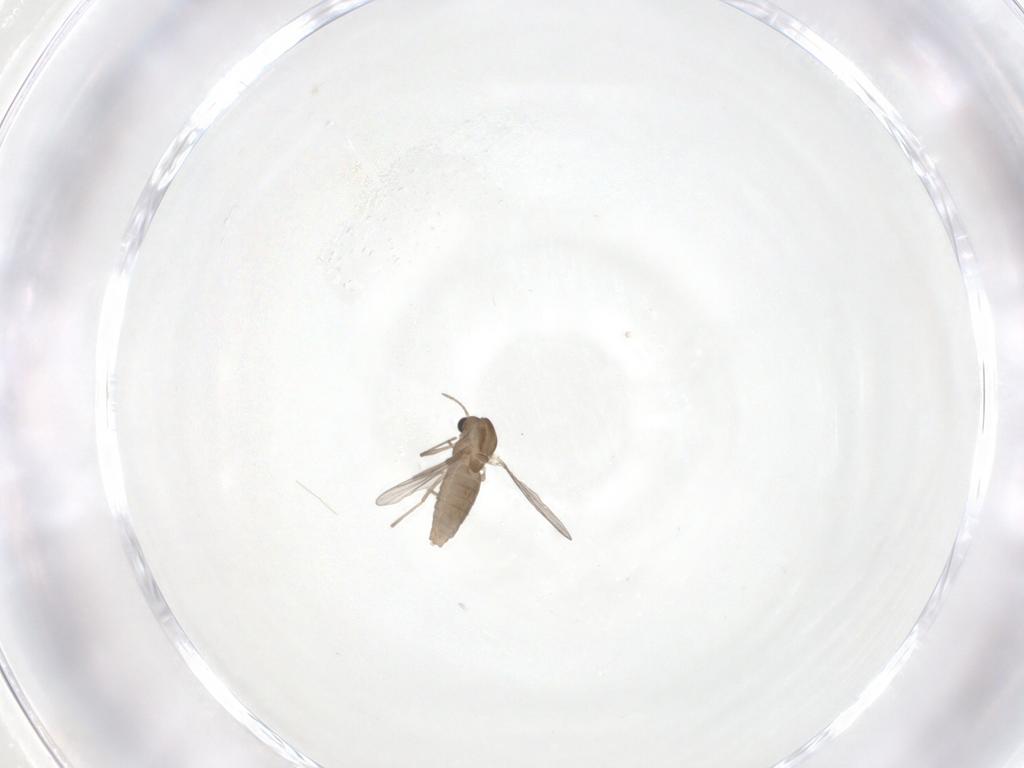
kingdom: Animalia
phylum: Arthropoda
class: Insecta
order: Diptera
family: Chironomidae
